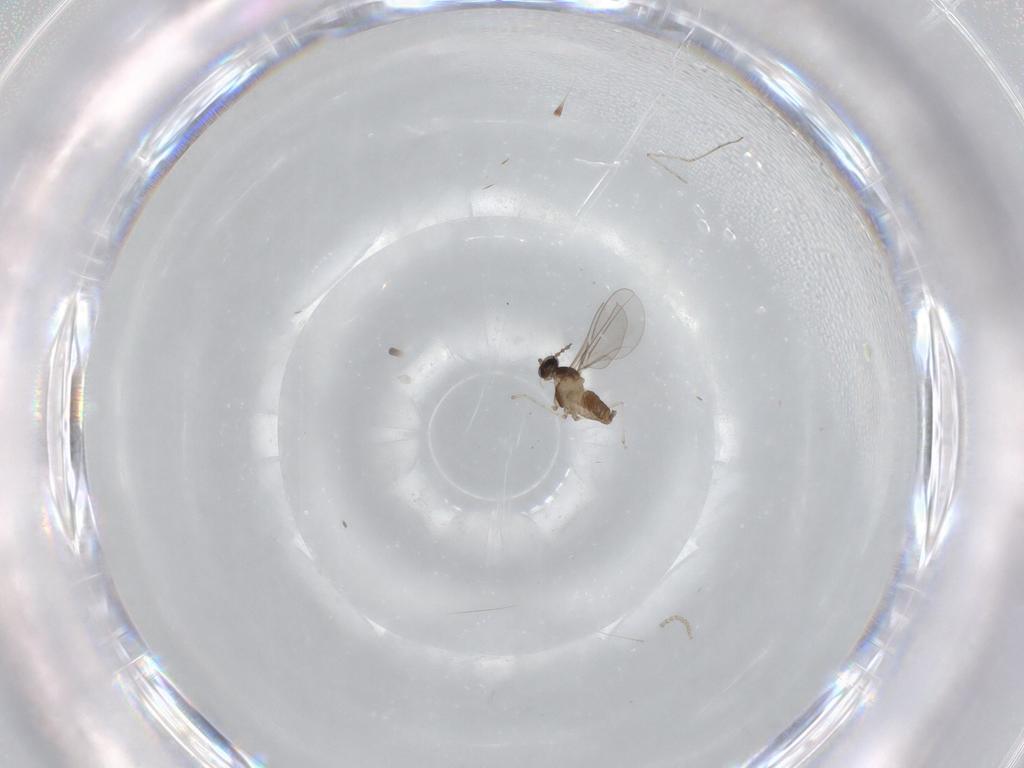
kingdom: Animalia
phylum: Arthropoda
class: Insecta
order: Diptera
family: Cecidomyiidae
